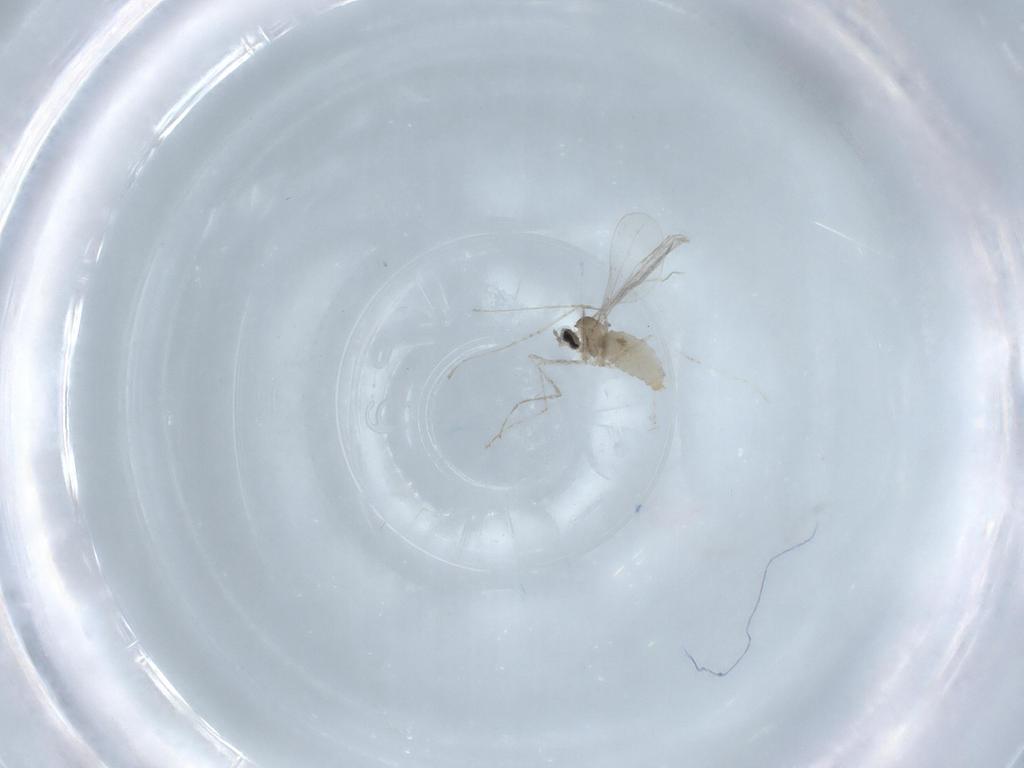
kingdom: Animalia
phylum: Arthropoda
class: Insecta
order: Diptera
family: Cecidomyiidae
